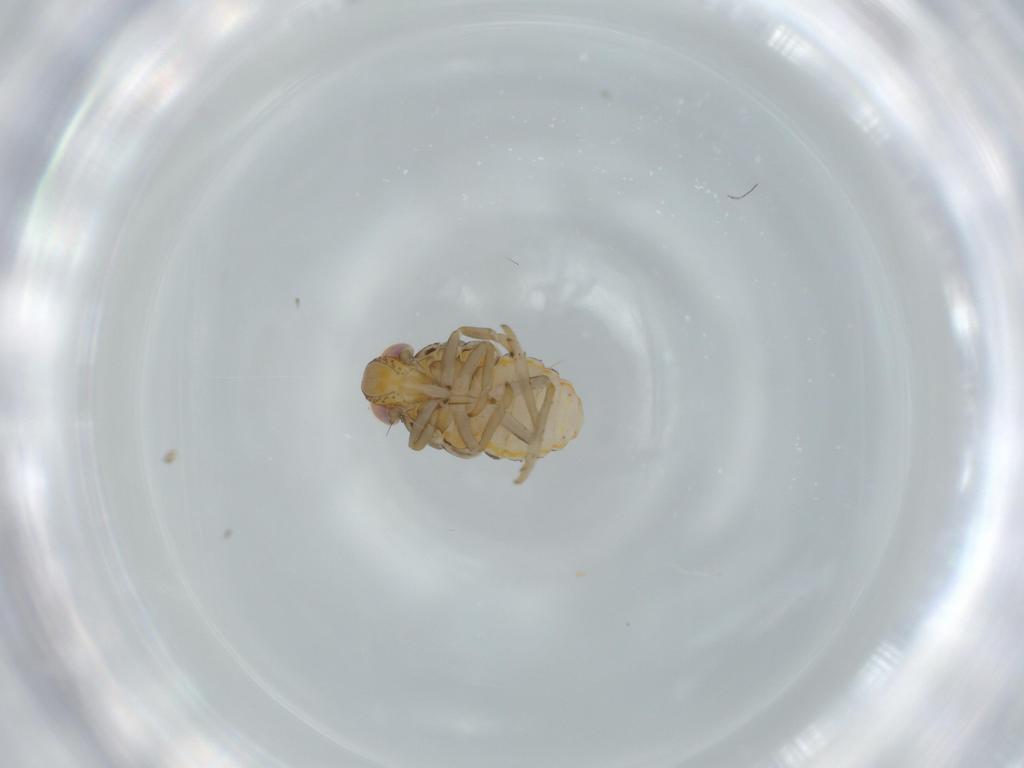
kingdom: Animalia
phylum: Arthropoda
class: Insecta
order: Hemiptera
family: Issidae
